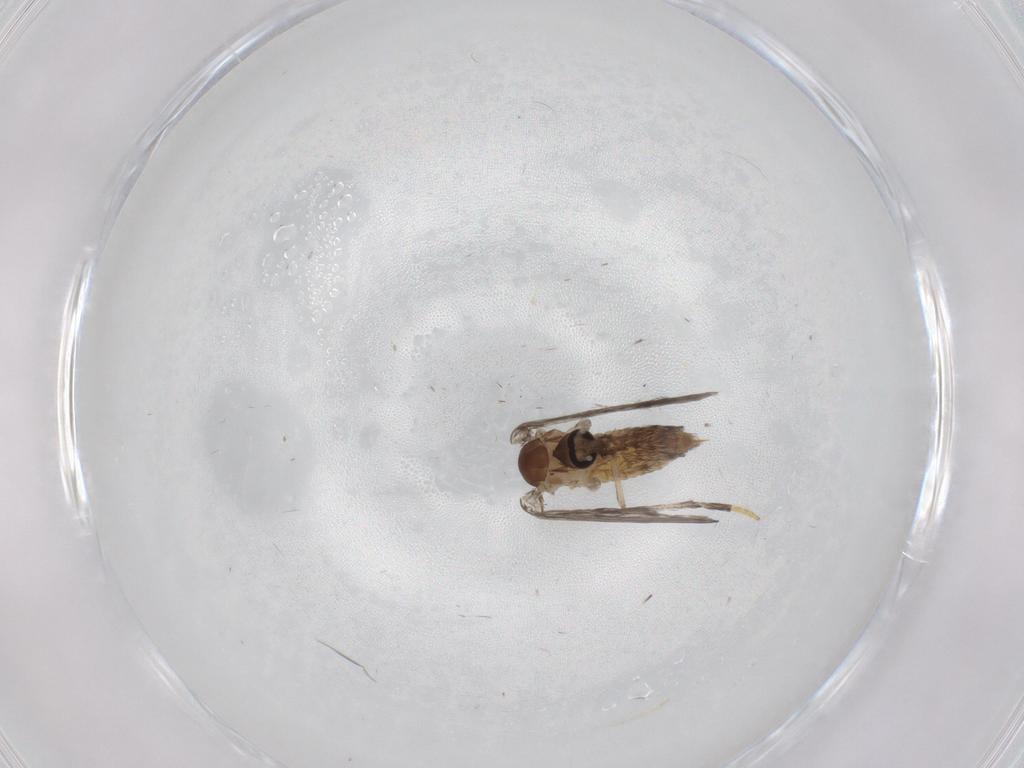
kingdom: Animalia
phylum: Arthropoda
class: Insecta
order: Diptera
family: Psychodidae
